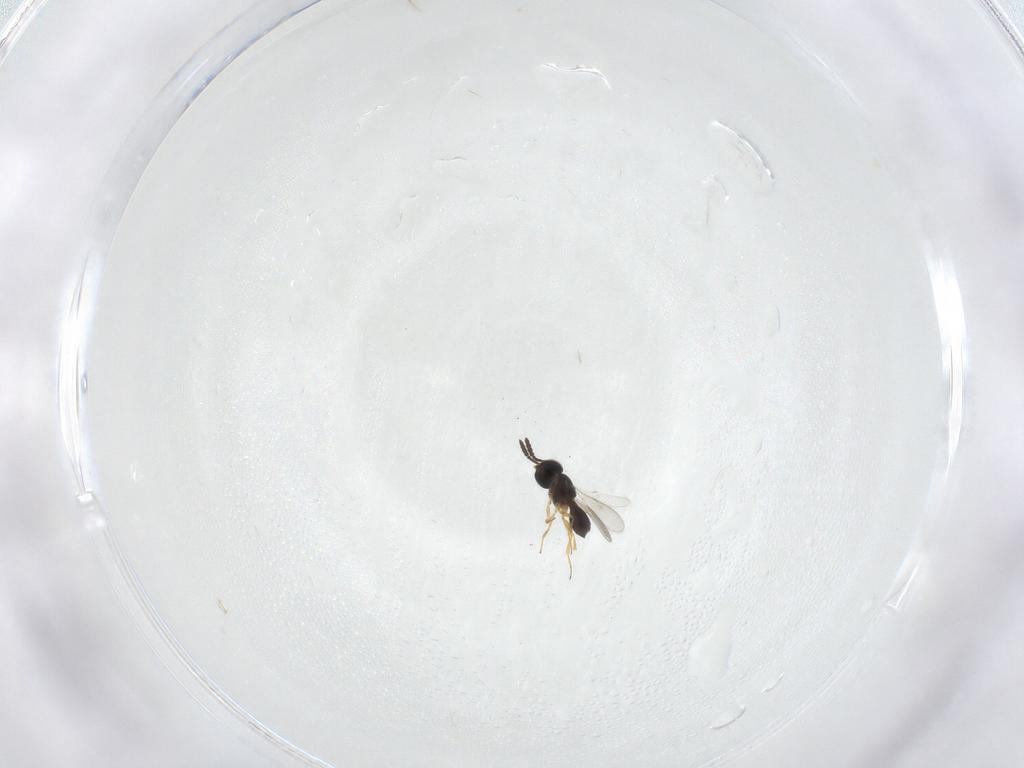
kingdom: Animalia
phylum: Arthropoda
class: Insecta
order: Hymenoptera
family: Scelionidae
